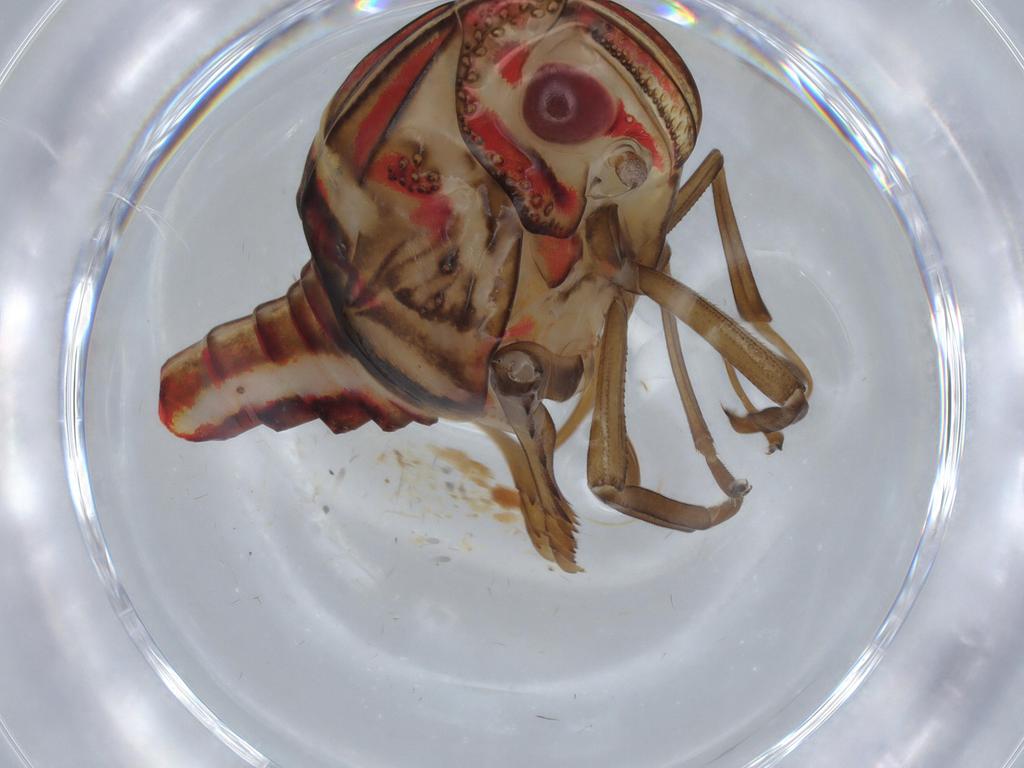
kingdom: Animalia
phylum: Arthropoda
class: Insecta
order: Hemiptera
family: Nogodinidae
